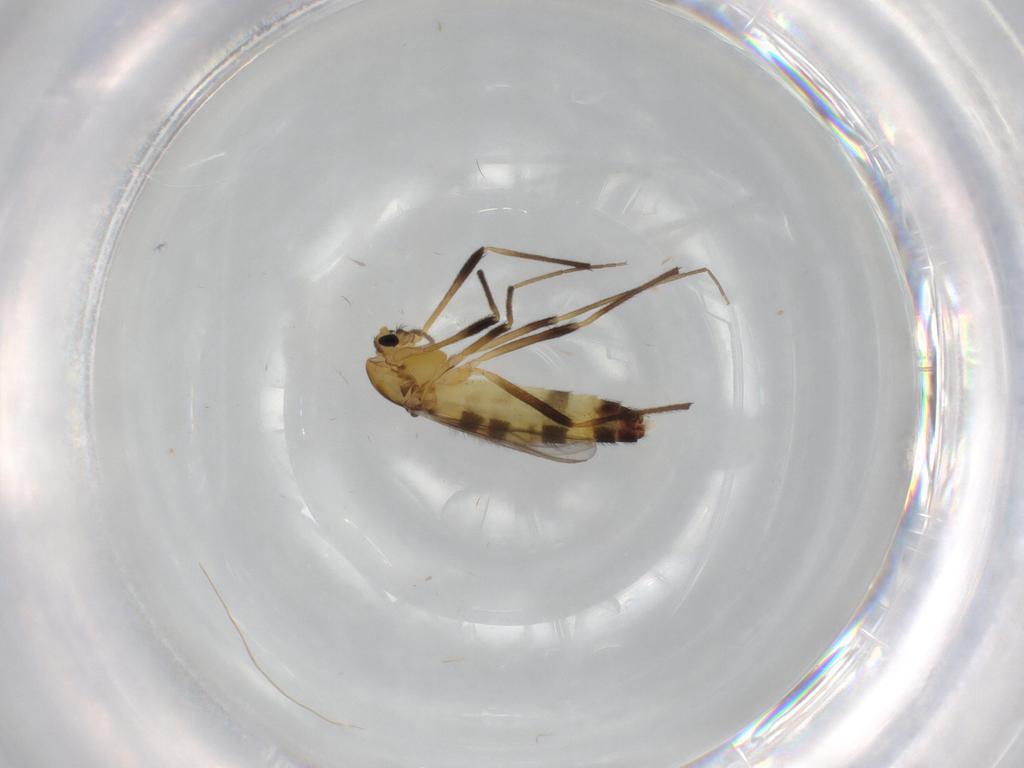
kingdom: Animalia
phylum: Arthropoda
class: Insecta
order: Diptera
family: Chironomidae
